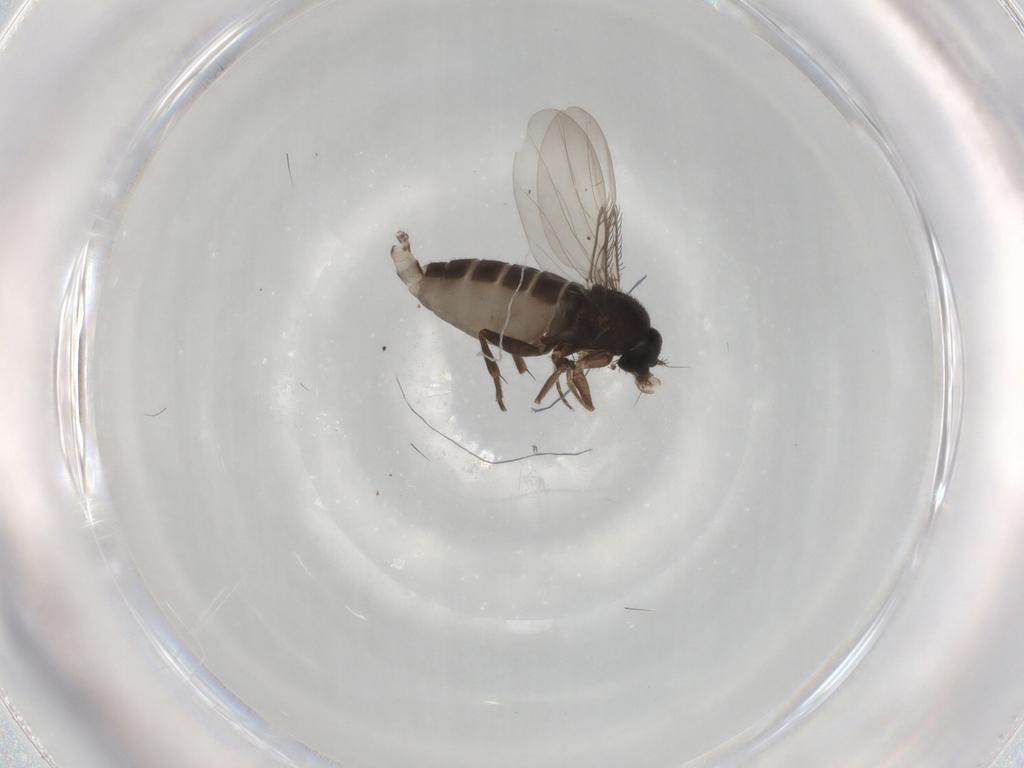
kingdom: Animalia
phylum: Arthropoda
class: Insecta
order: Diptera
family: Phoridae
